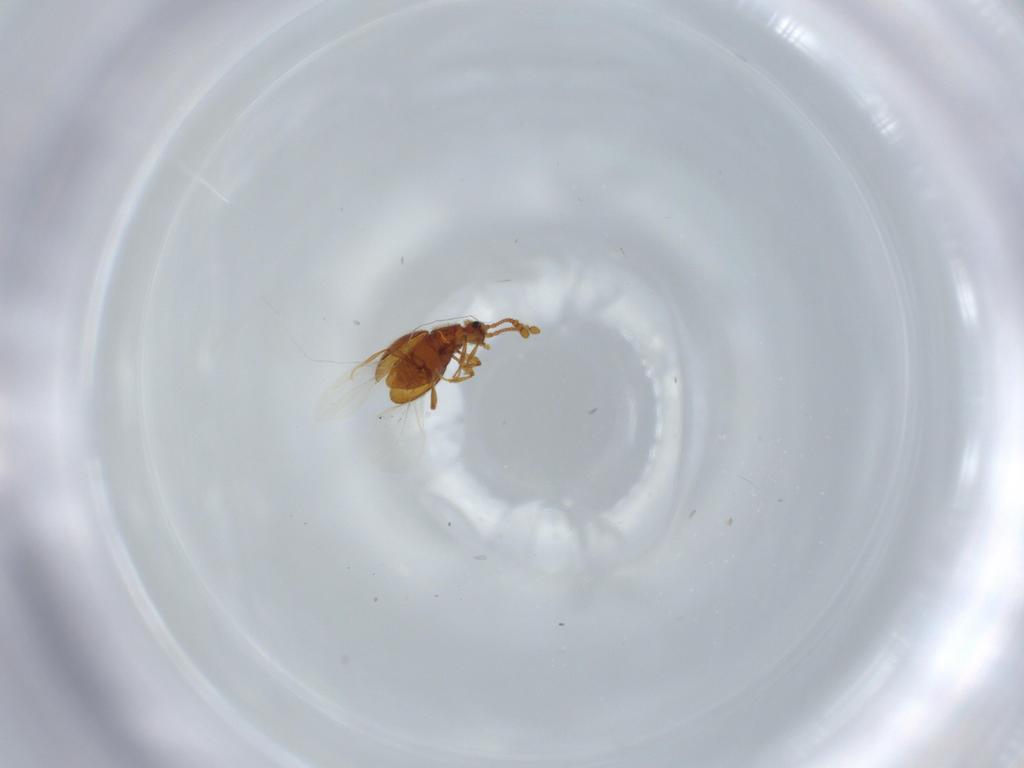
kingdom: Animalia
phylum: Arthropoda
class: Insecta
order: Coleoptera
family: Staphylinidae
